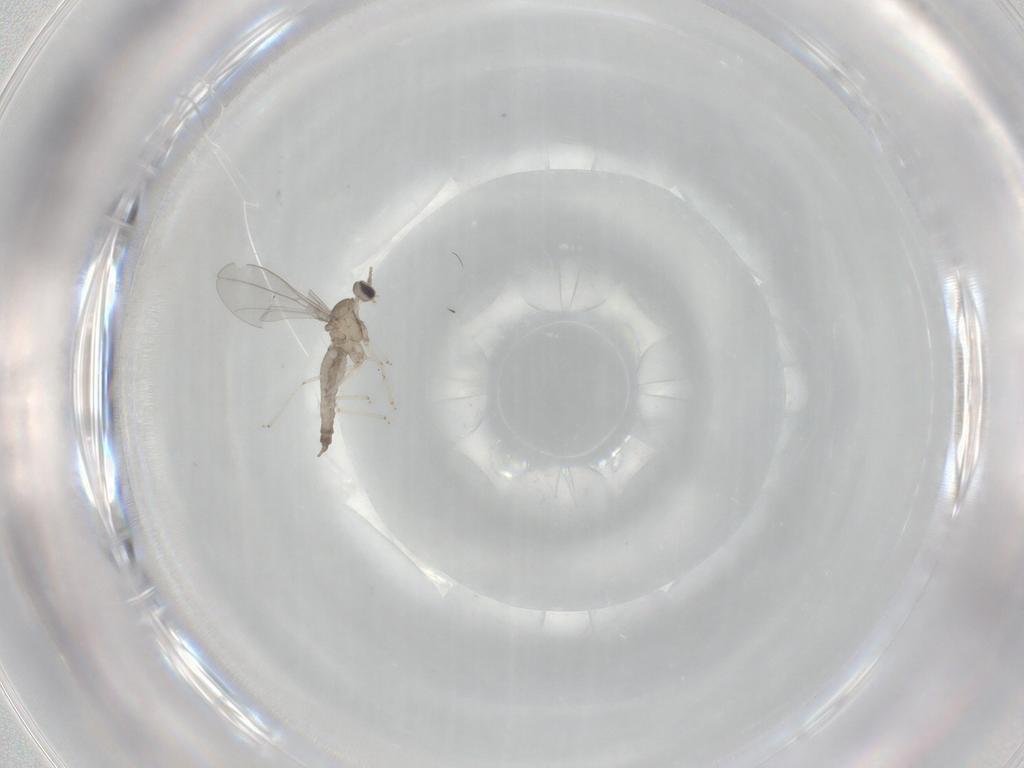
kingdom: Animalia
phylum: Arthropoda
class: Insecta
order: Diptera
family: Cecidomyiidae
